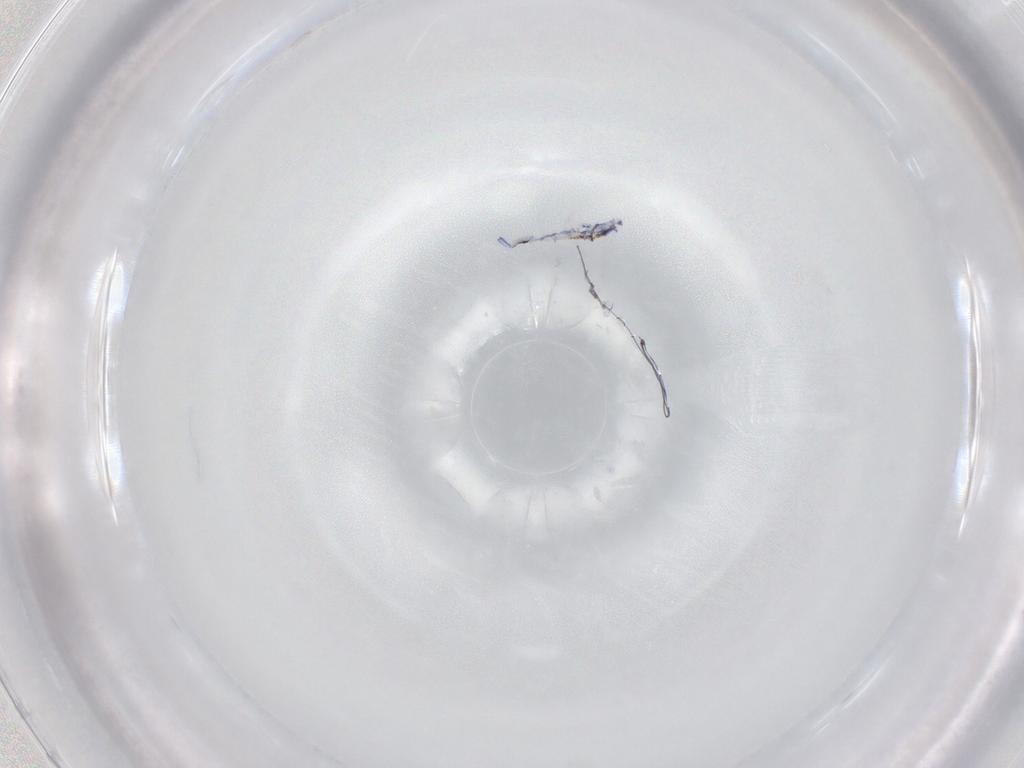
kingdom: Animalia
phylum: Arthropoda
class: Collembola
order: Entomobryomorpha
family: Entomobryidae
